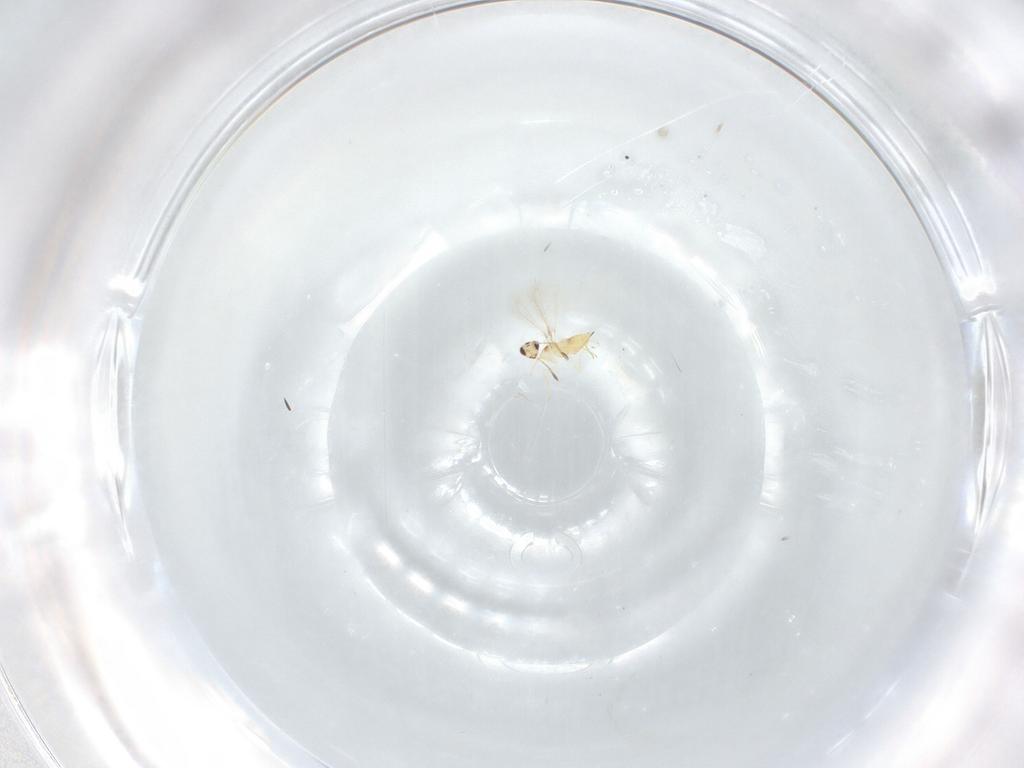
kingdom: Animalia
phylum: Arthropoda
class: Insecta
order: Hymenoptera
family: Mymaridae
